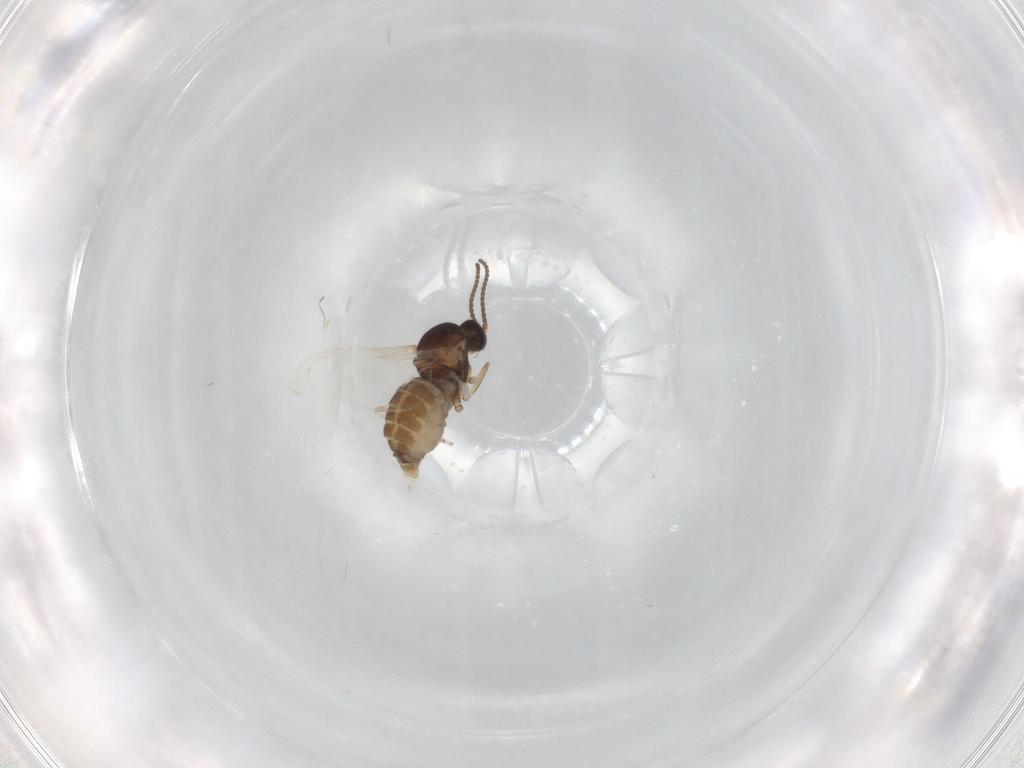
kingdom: Animalia
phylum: Arthropoda
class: Insecta
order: Diptera
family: Cecidomyiidae
